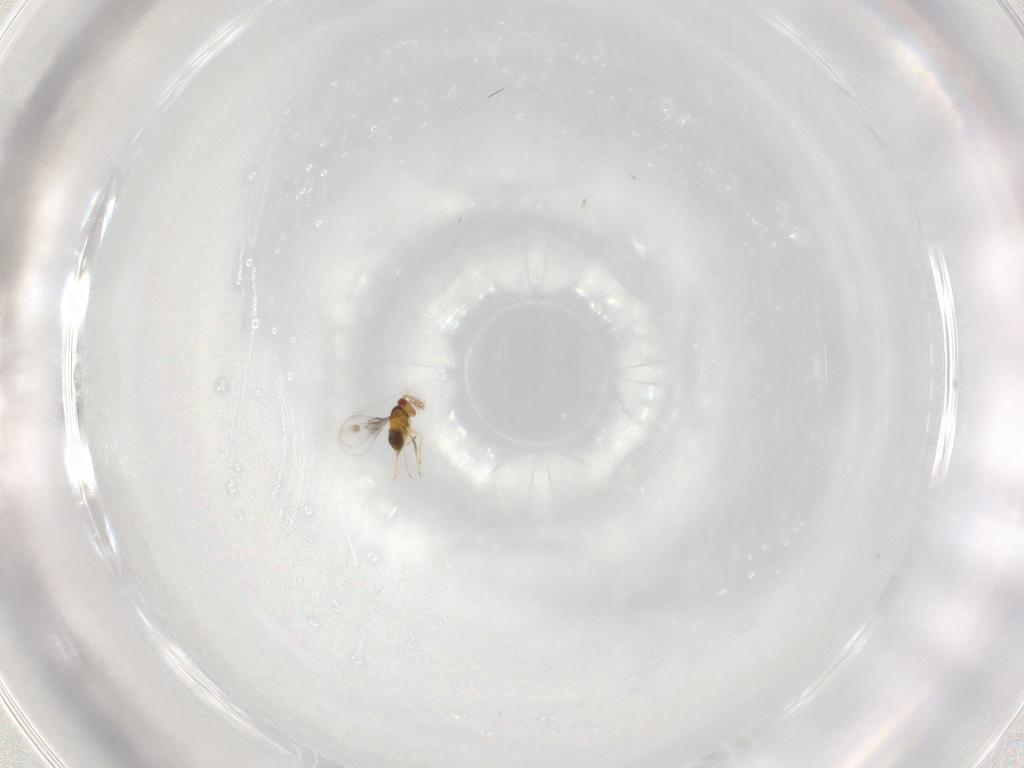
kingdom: Animalia
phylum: Arthropoda
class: Insecta
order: Hymenoptera
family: Trichogrammatidae
